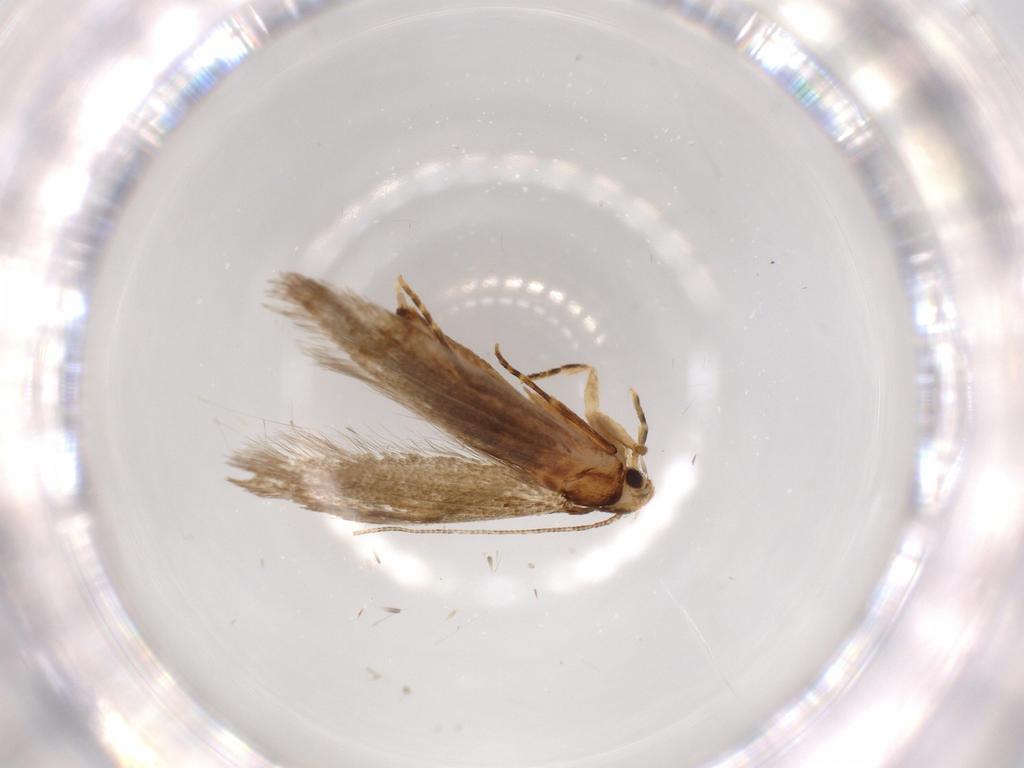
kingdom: Animalia
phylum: Arthropoda
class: Insecta
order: Lepidoptera
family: Tineidae
